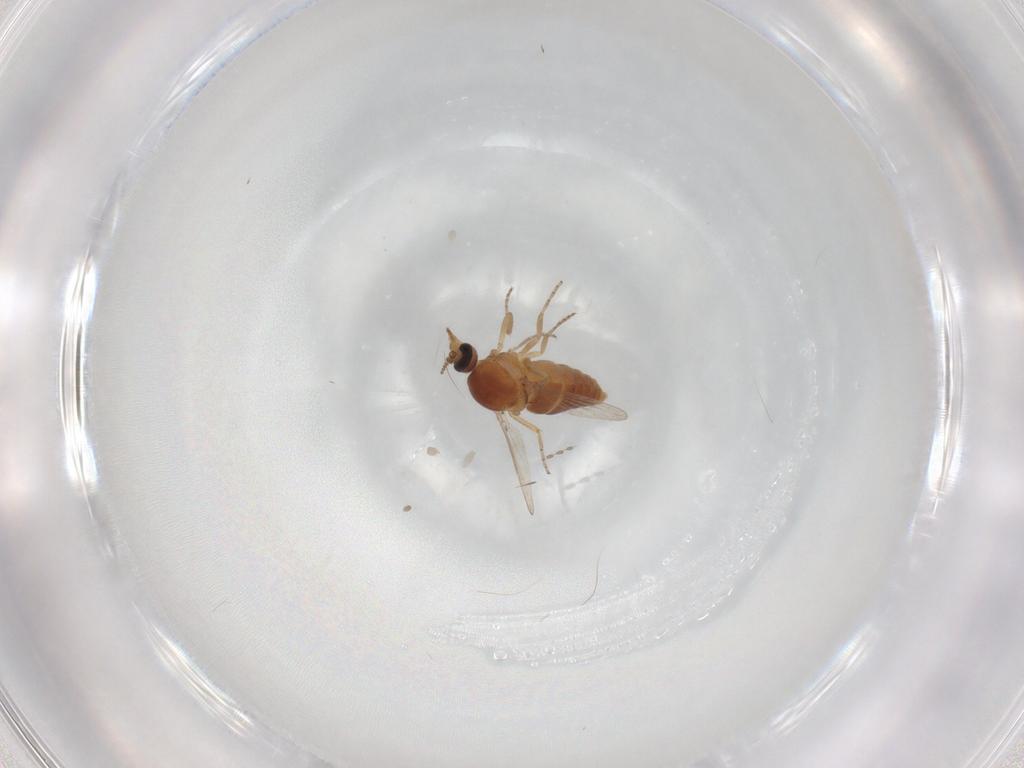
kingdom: Animalia
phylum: Arthropoda
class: Insecta
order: Diptera
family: Ceratopogonidae
